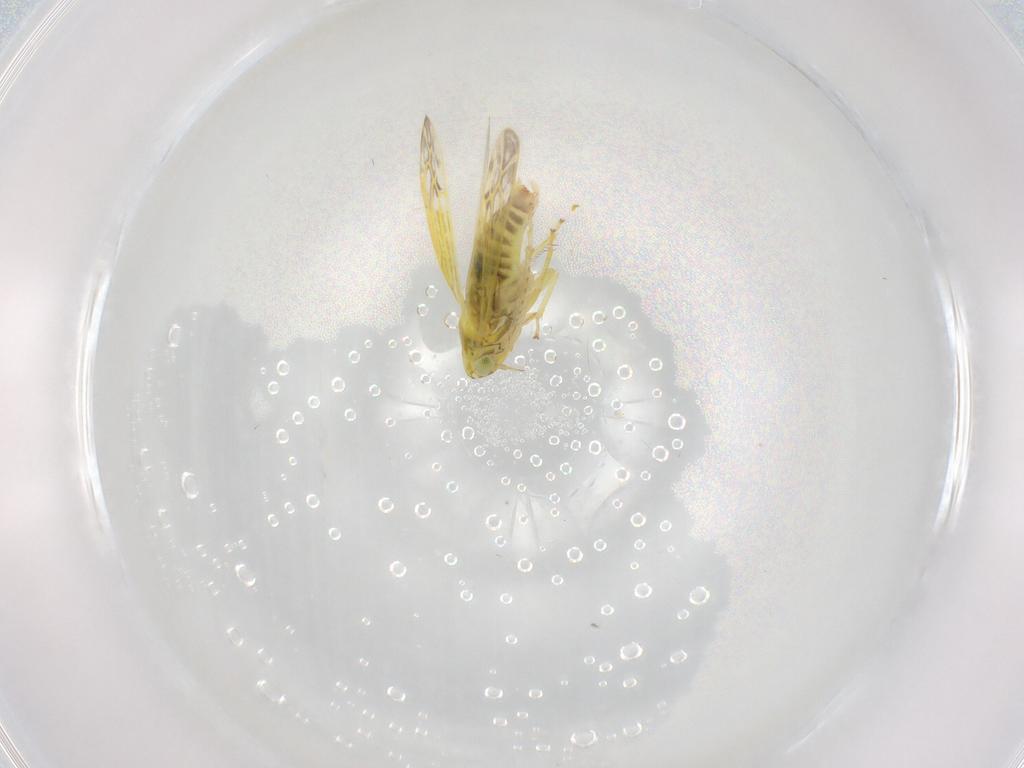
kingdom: Animalia
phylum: Arthropoda
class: Insecta
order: Hemiptera
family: Cicadellidae
